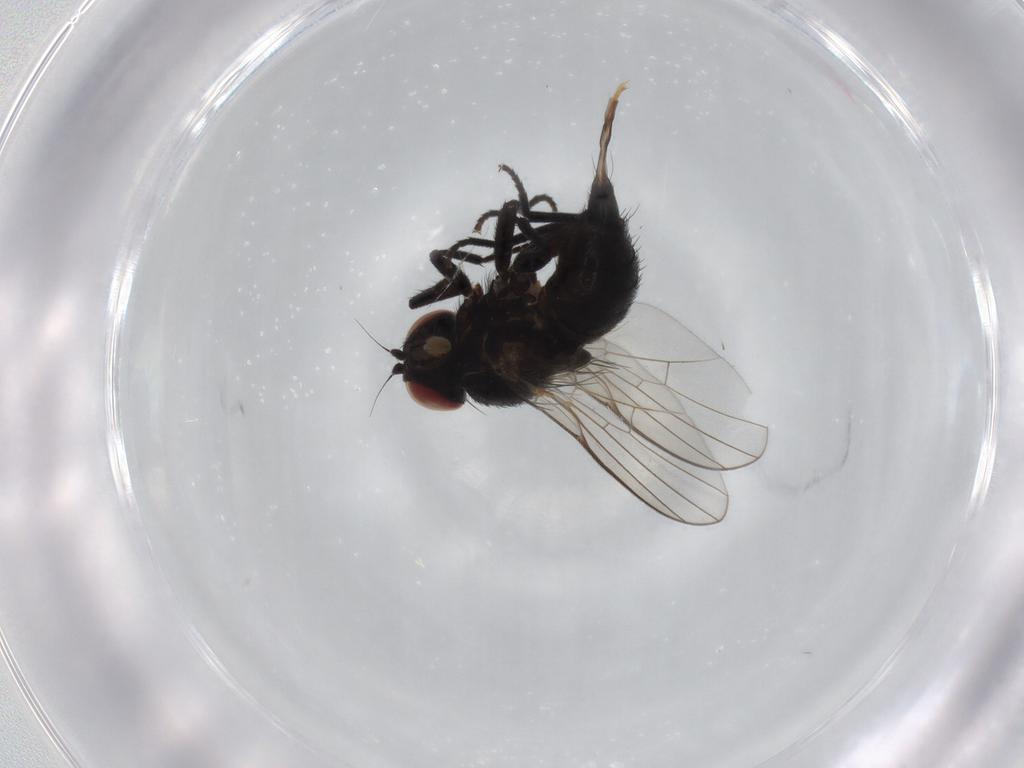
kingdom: Animalia
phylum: Arthropoda
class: Insecta
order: Diptera
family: Agromyzidae
